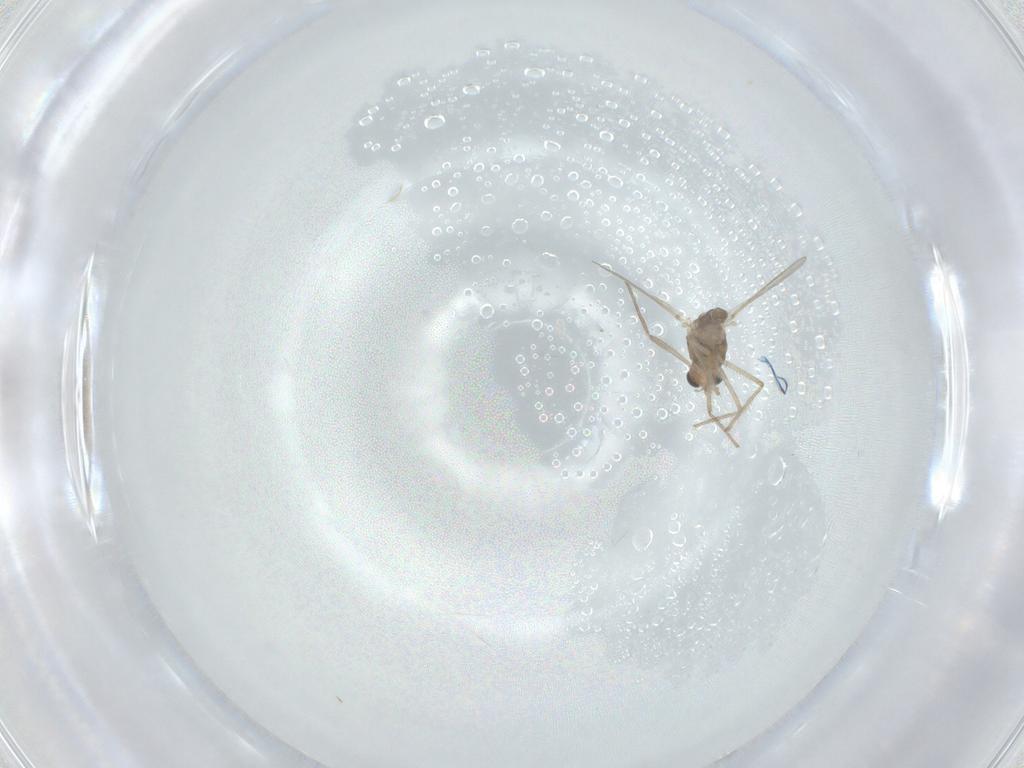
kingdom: Animalia
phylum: Arthropoda
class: Insecta
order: Diptera
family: Chironomidae
